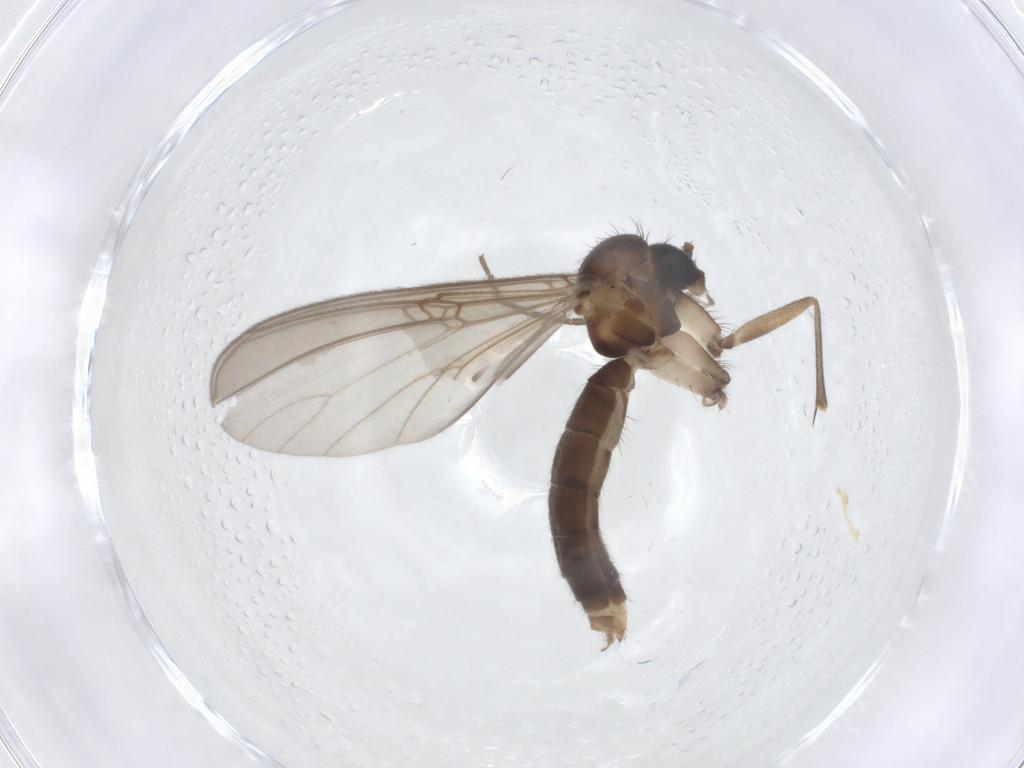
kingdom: Animalia
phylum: Arthropoda
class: Insecta
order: Diptera
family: Mycetophilidae
